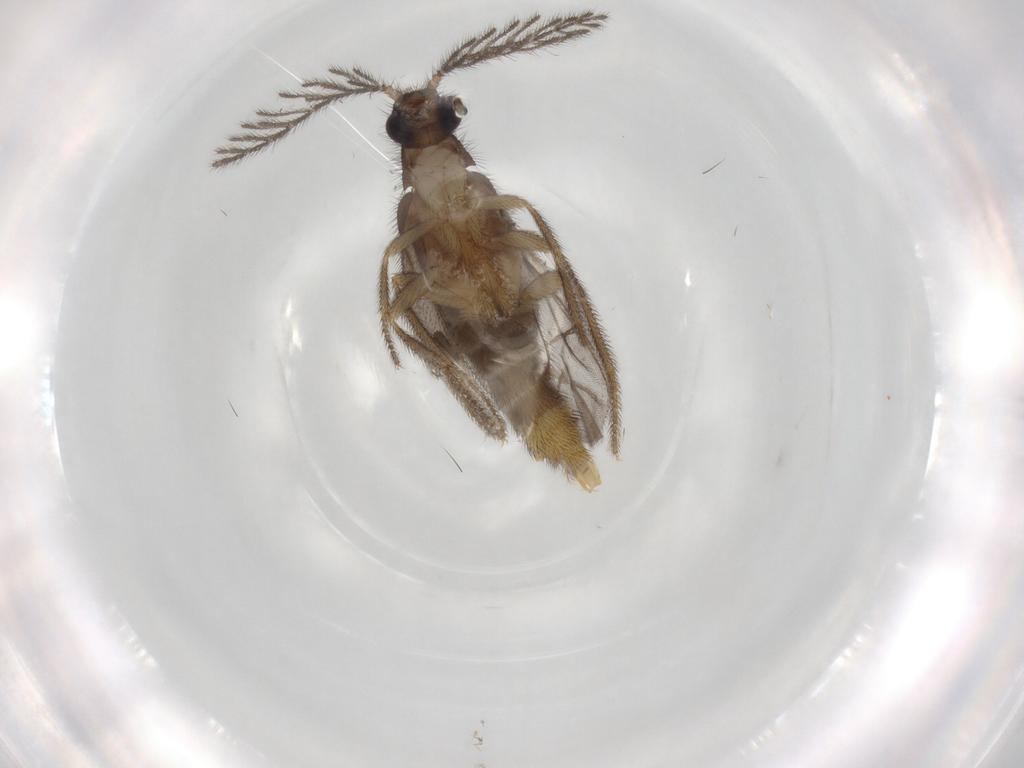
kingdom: Animalia
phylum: Arthropoda
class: Insecta
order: Coleoptera
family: Phengodidae
